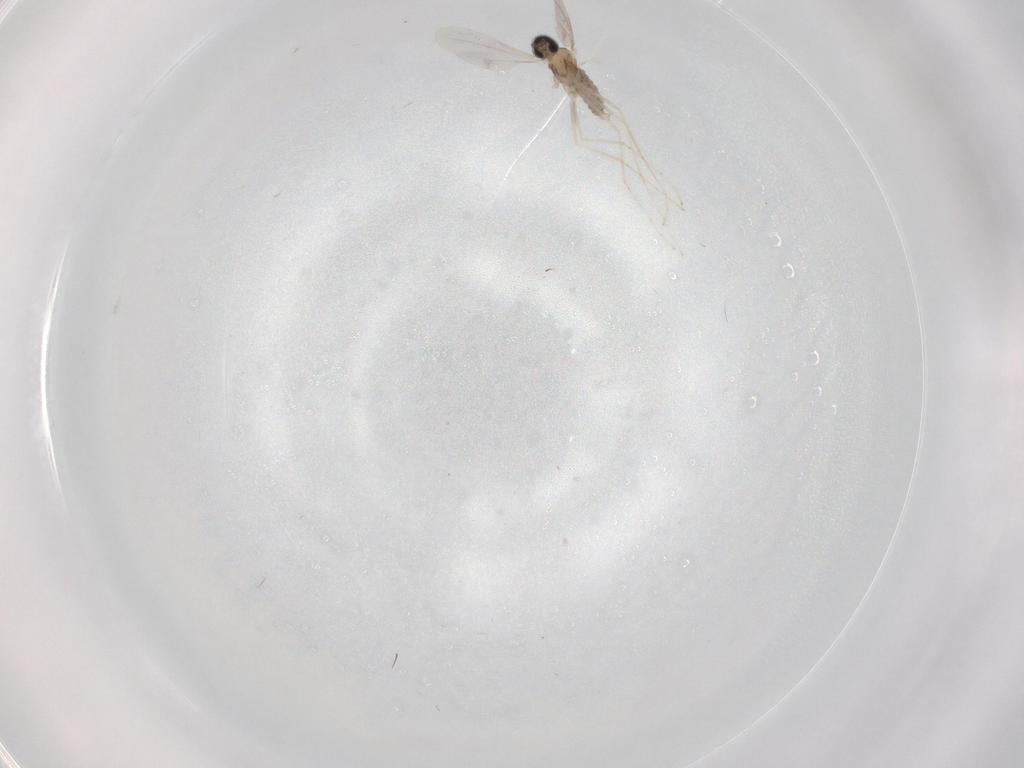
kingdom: Animalia
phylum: Arthropoda
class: Insecta
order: Diptera
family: Cecidomyiidae
